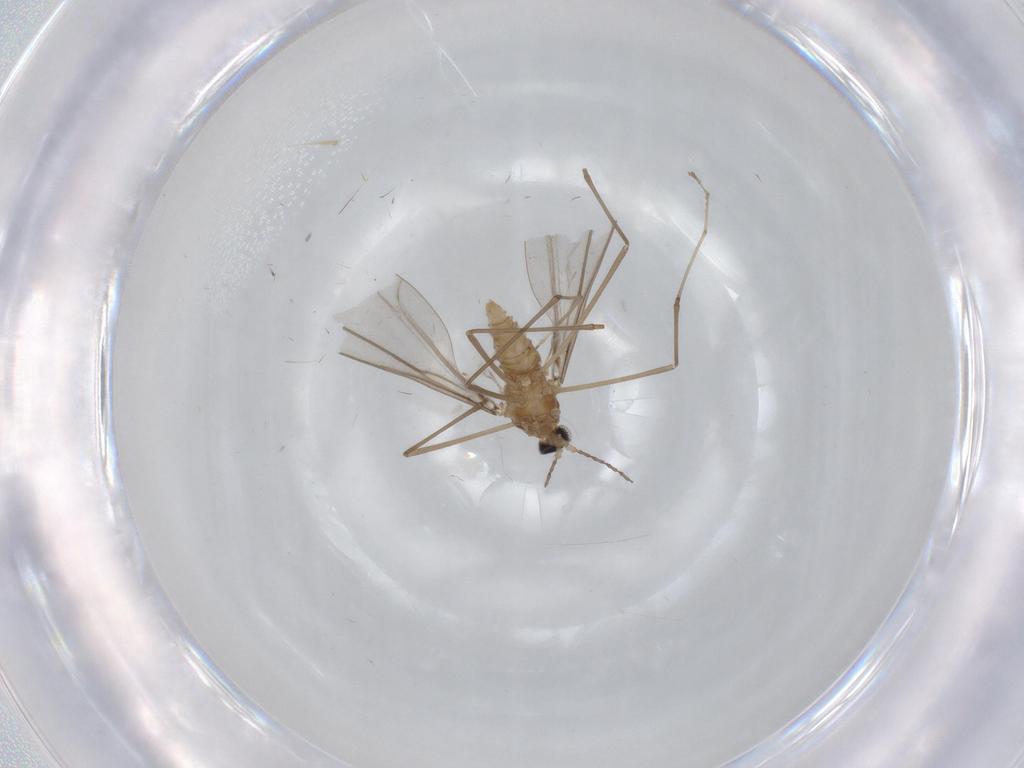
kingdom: Animalia
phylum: Arthropoda
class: Insecta
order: Diptera
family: Cecidomyiidae
